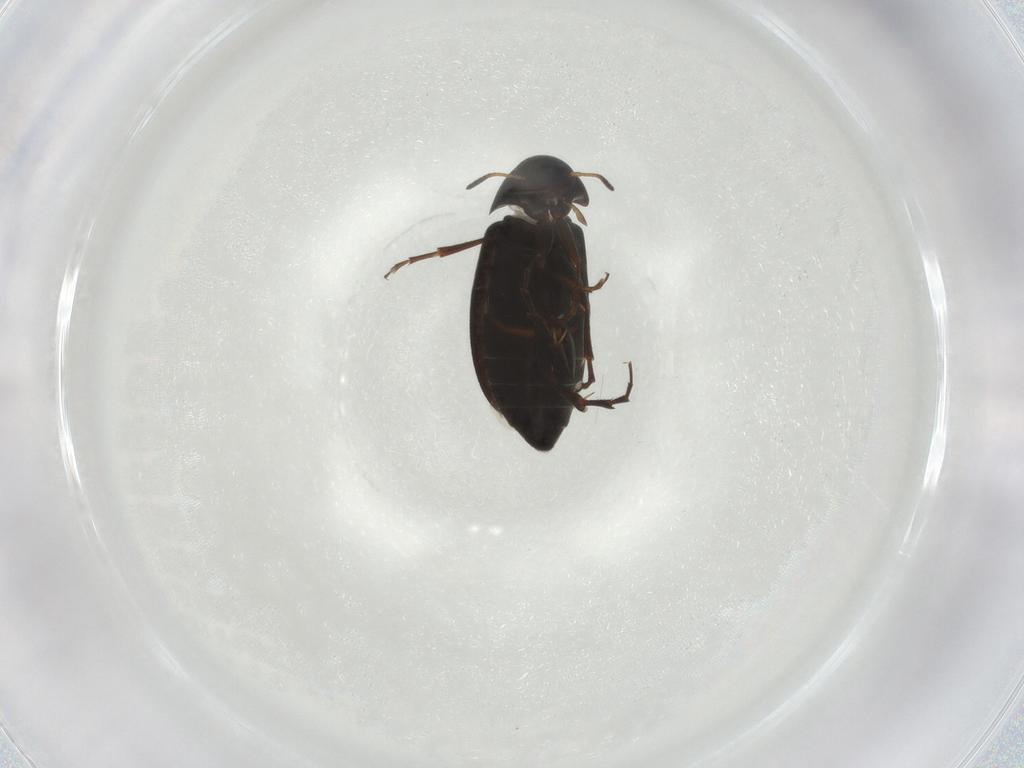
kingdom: Animalia
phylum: Arthropoda
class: Insecta
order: Coleoptera
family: Scraptiidae
